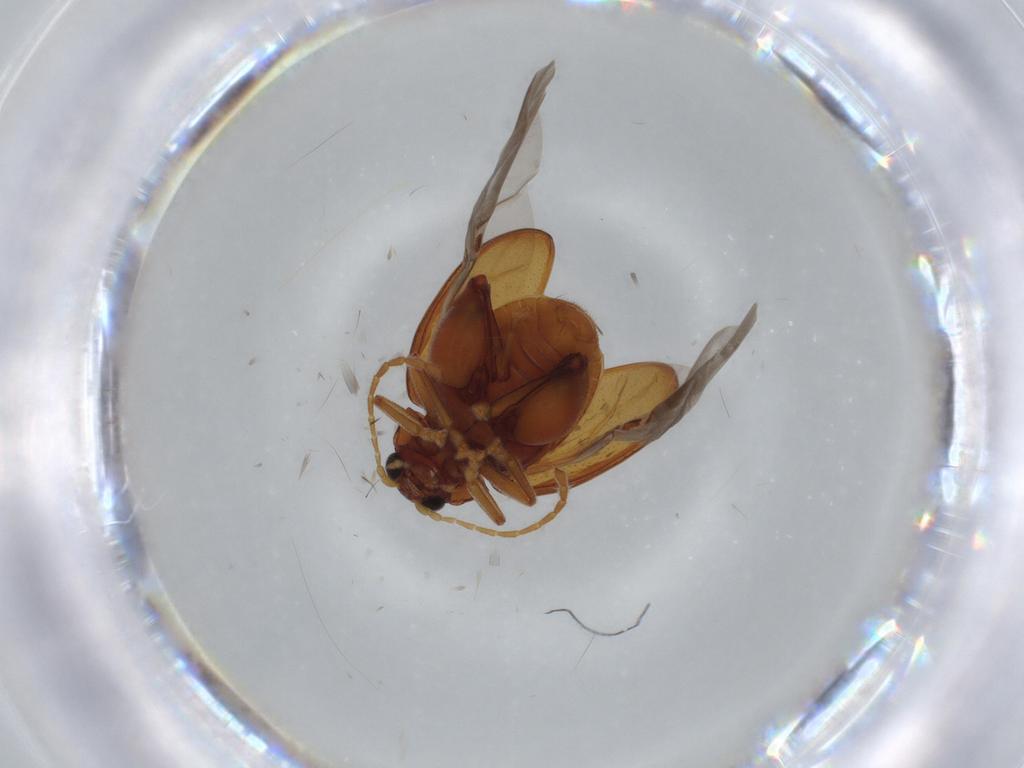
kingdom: Animalia
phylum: Arthropoda
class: Insecta
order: Coleoptera
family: Chrysomelidae
